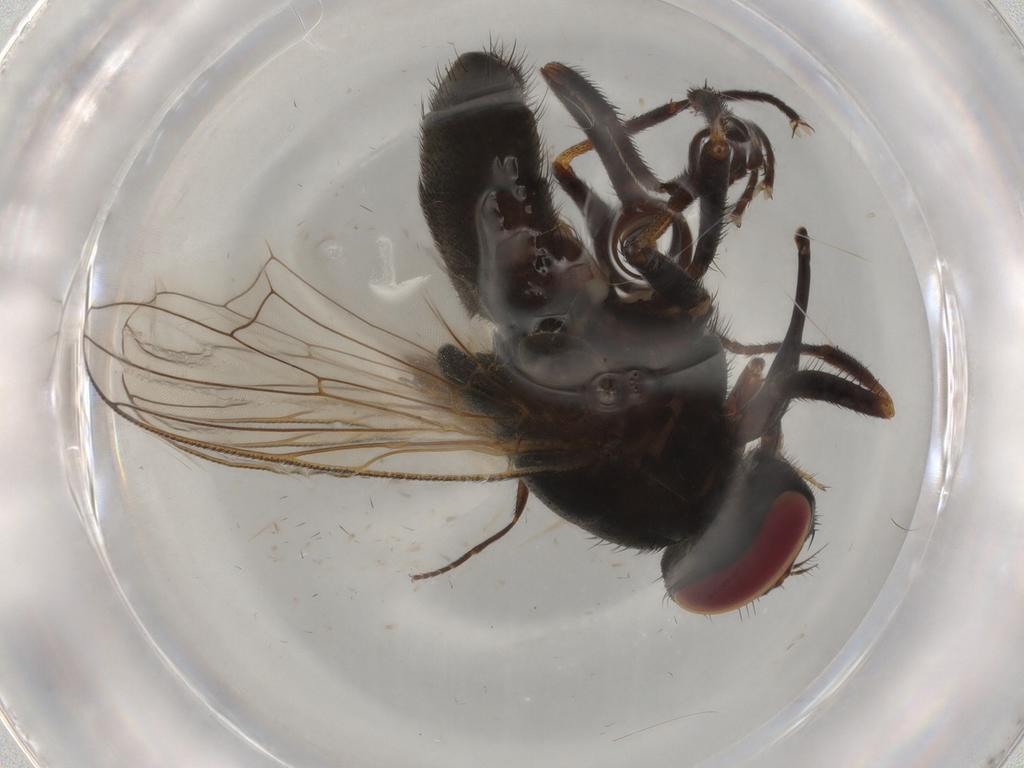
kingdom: Animalia
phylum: Arthropoda
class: Insecta
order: Diptera
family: Muscidae
